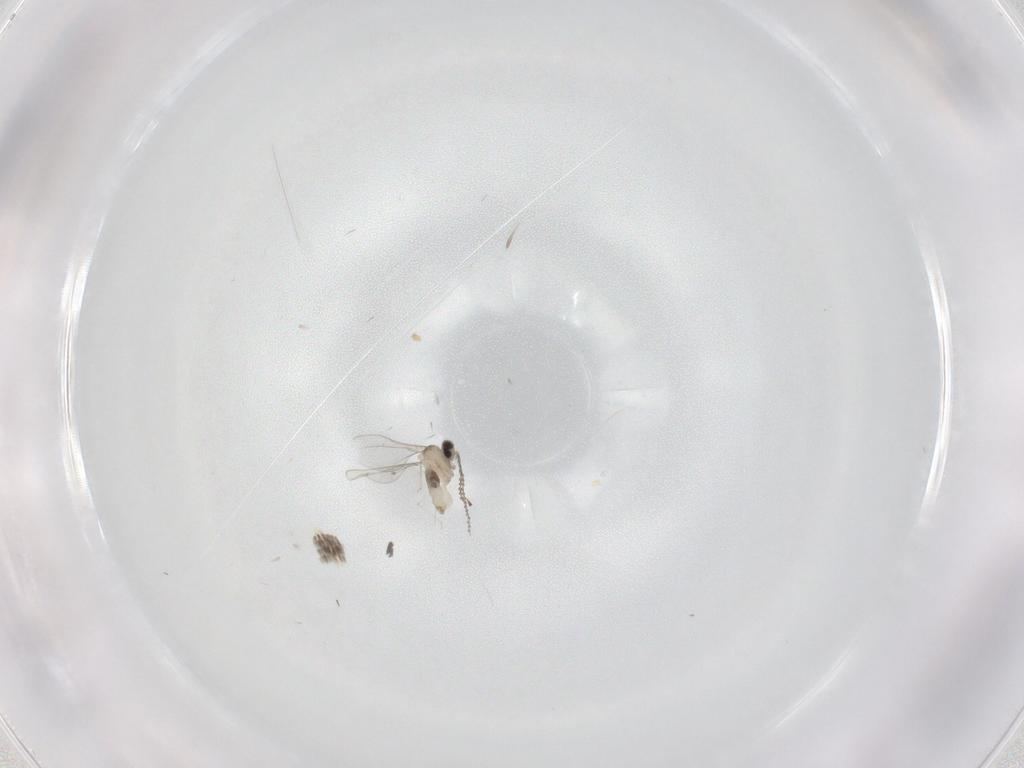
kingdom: Animalia
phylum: Arthropoda
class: Insecta
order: Diptera
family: Cecidomyiidae
